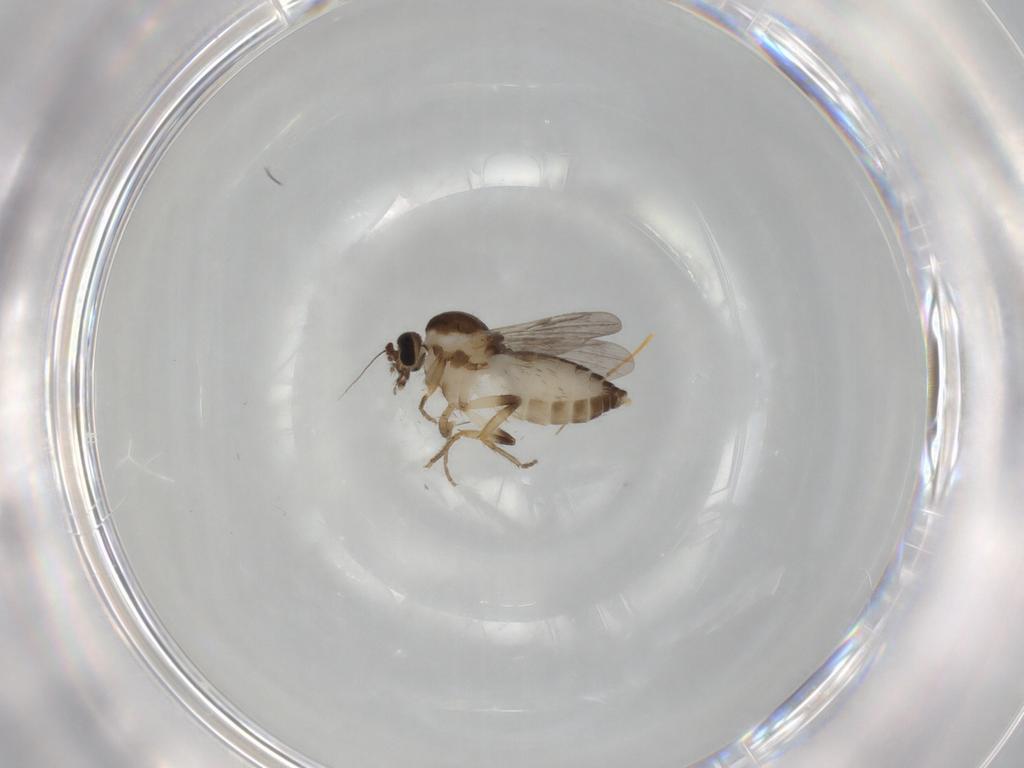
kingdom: Animalia
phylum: Arthropoda
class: Insecta
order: Diptera
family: Ceratopogonidae
